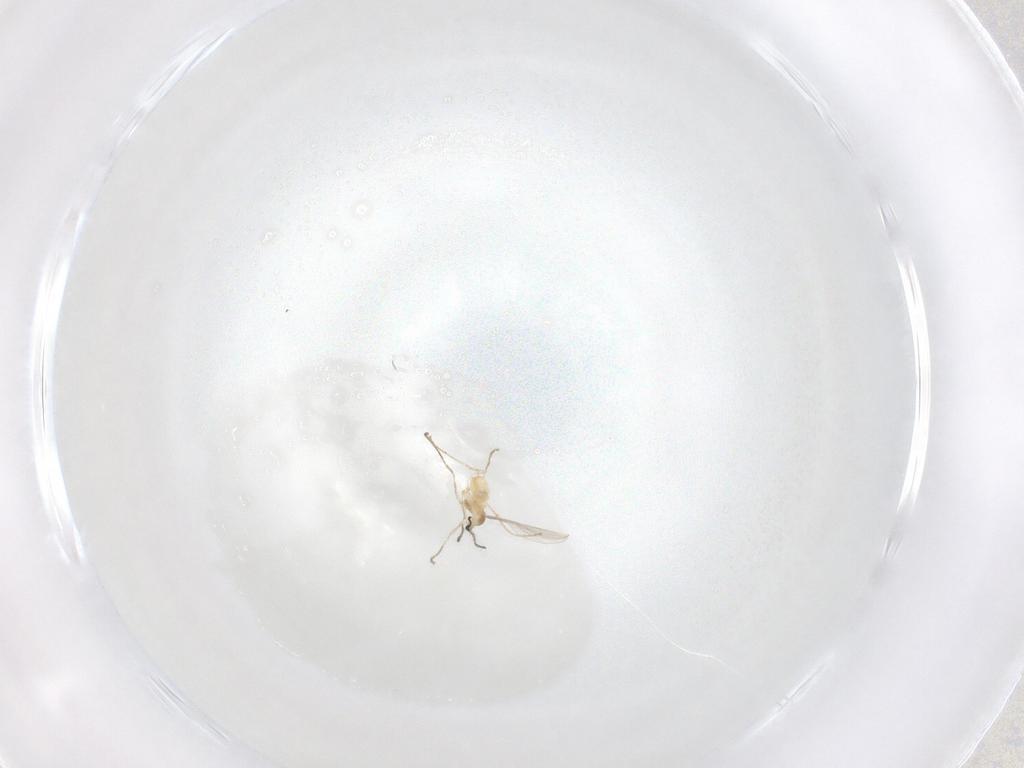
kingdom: Animalia
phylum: Arthropoda
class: Insecta
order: Diptera
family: Cecidomyiidae
